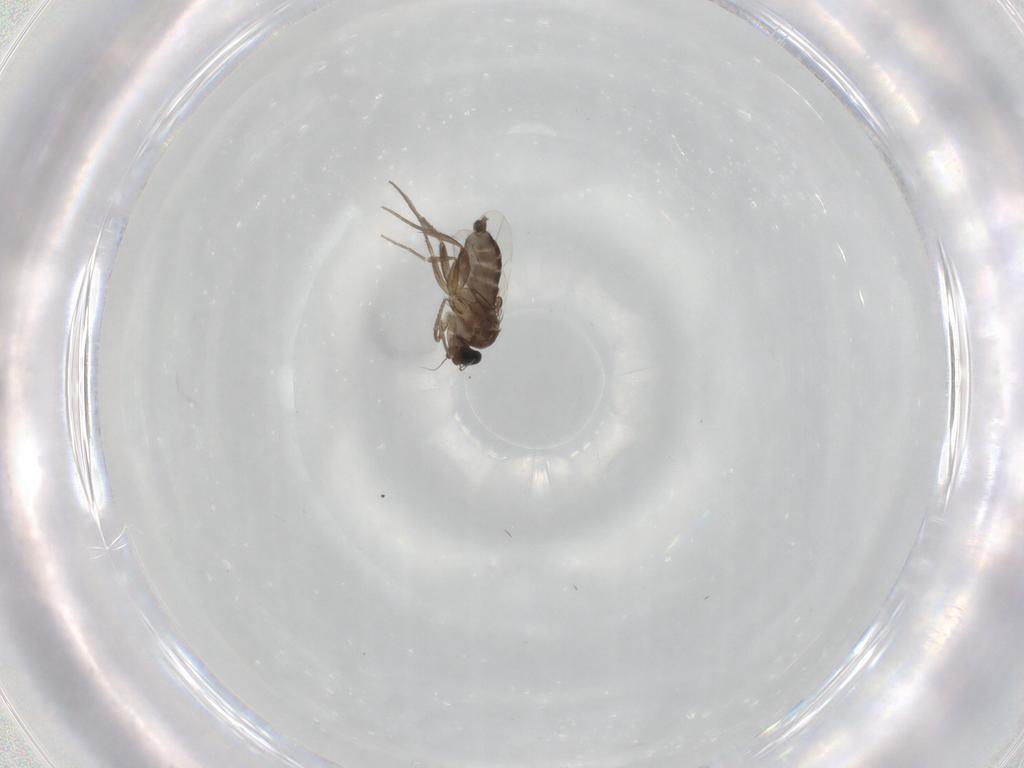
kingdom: Animalia
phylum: Arthropoda
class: Insecta
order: Diptera
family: Phoridae
